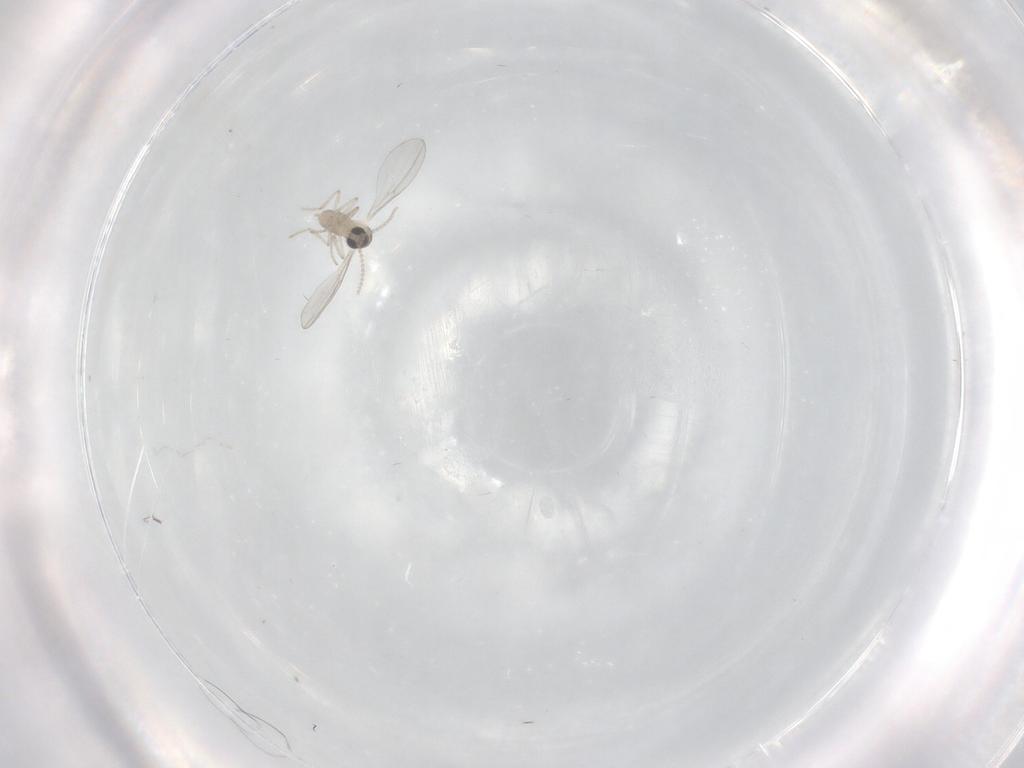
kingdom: Animalia
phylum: Arthropoda
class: Insecta
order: Diptera
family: Cecidomyiidae
